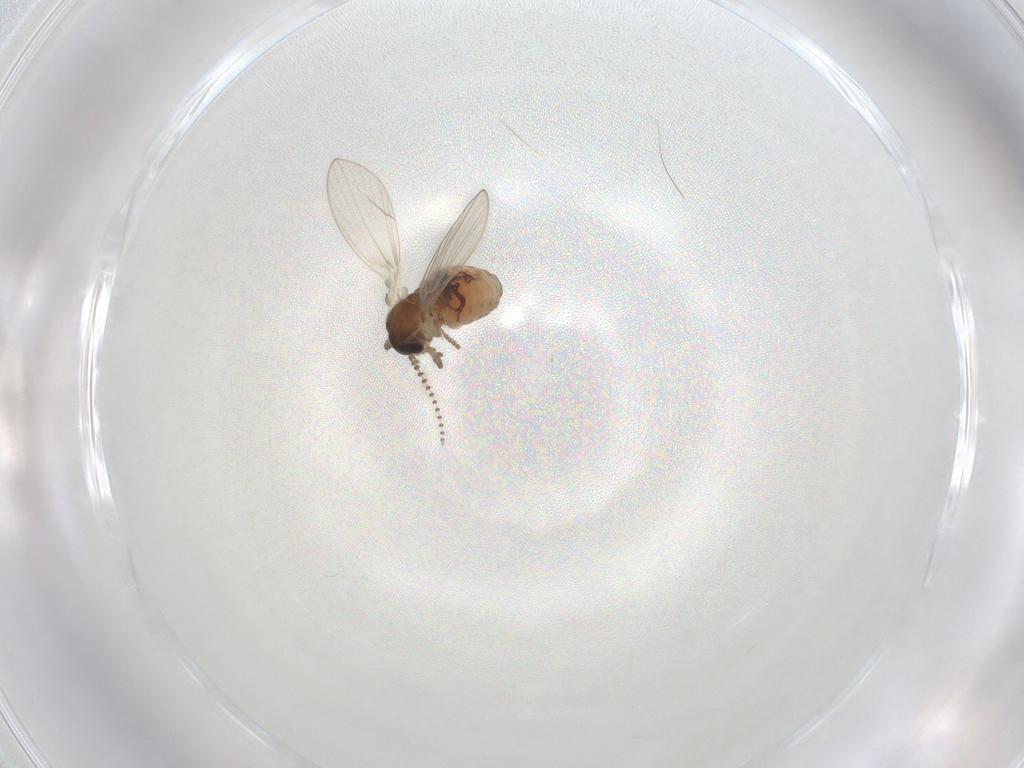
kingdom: Animalia
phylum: Arthropoda
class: Insecta
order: Diptera
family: Psychodidae
